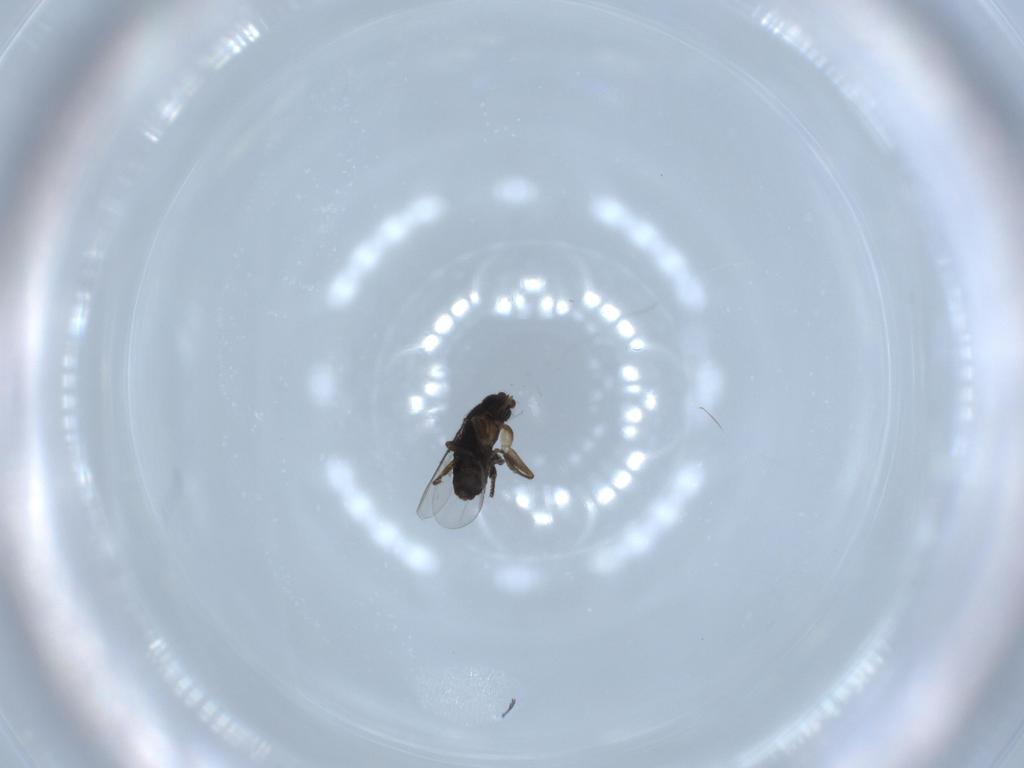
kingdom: Animalia
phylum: Arthropoda
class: Insecta
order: Diptera
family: Phoridae
